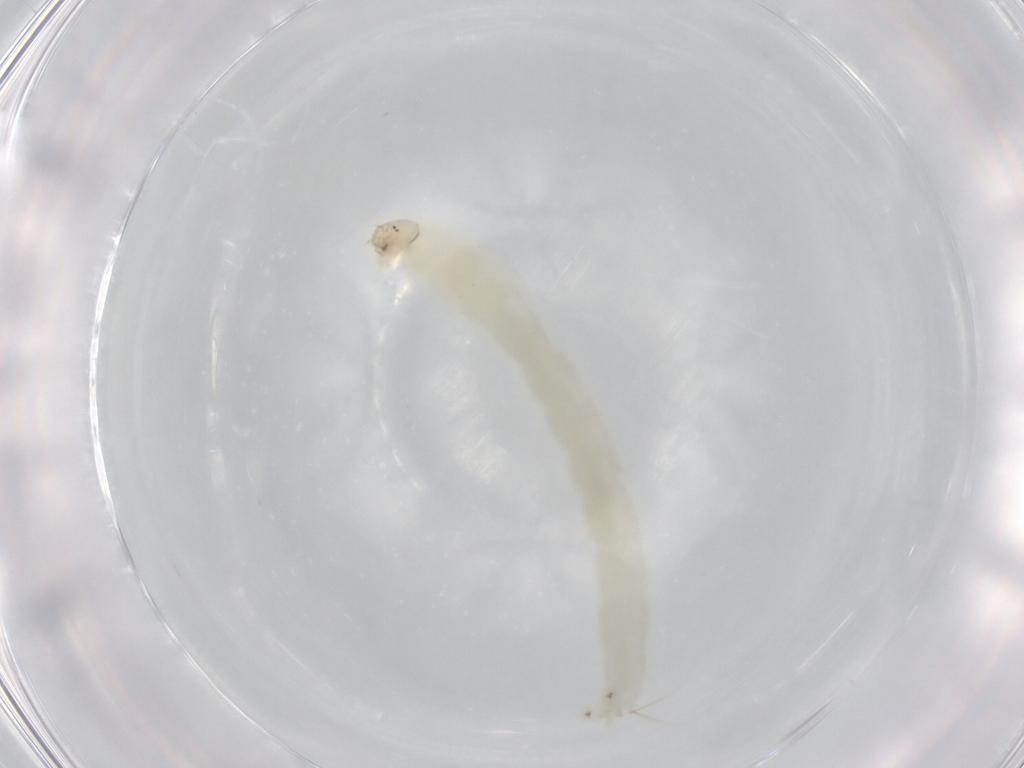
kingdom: Animalia
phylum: Arthropoda
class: Insecta
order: Diptera
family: Chironomidae
